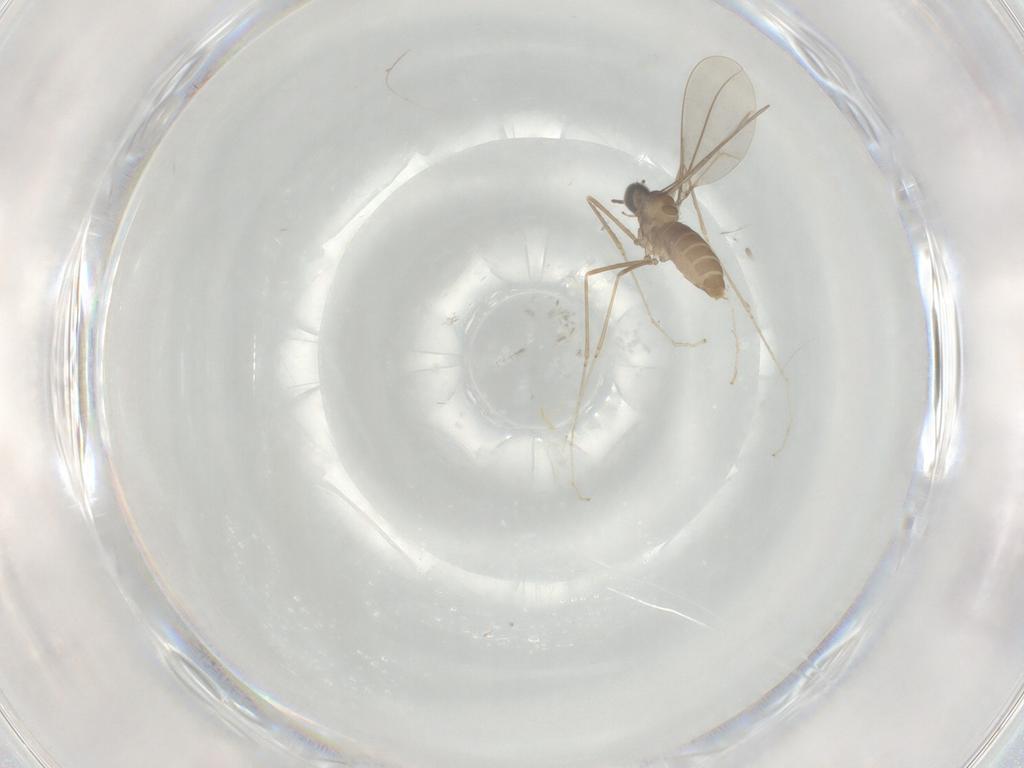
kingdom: Animalia
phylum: Arthropoda
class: Insecta
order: Diptera
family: Cecidomyiidae
